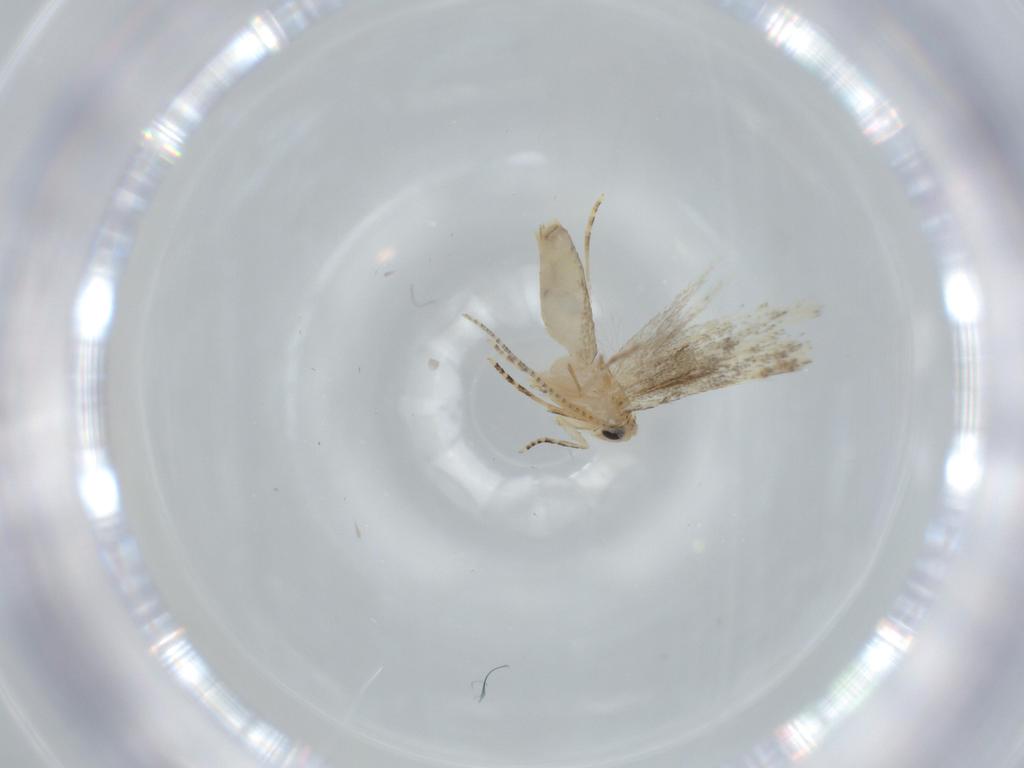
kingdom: Animalia
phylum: Arthropoda
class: Insecta
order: Lepidoptera
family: Bucculatricidae
